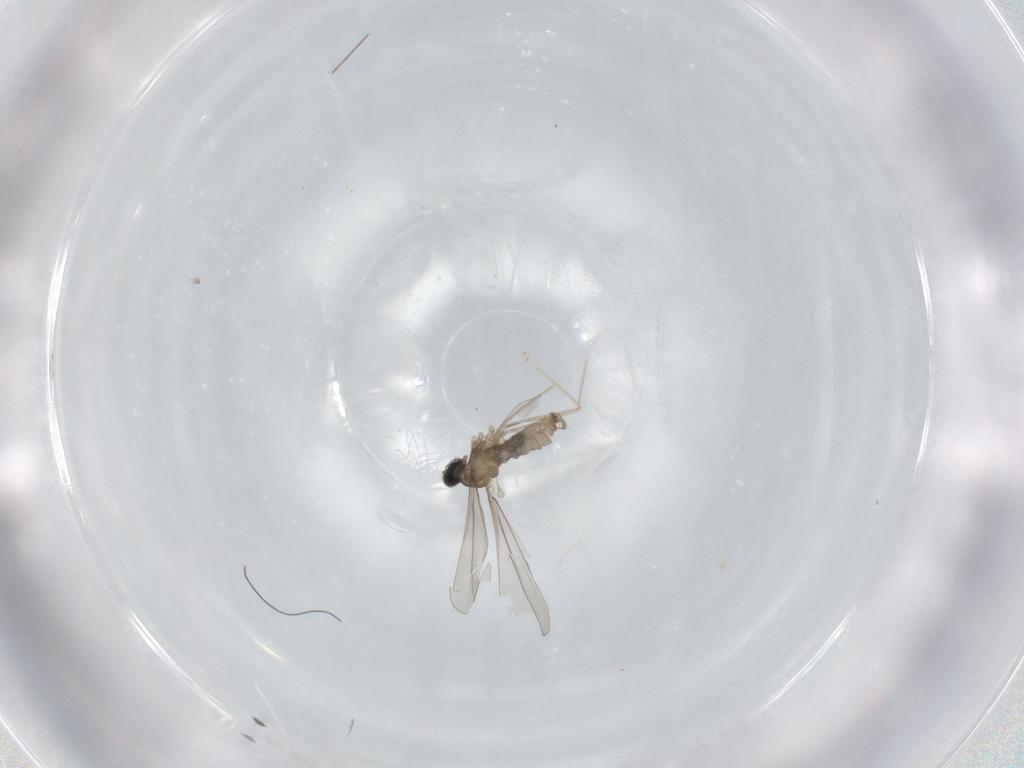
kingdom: Animalia
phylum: Arthropoda
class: Insecta
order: Diptera
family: Cecidomyiidae
